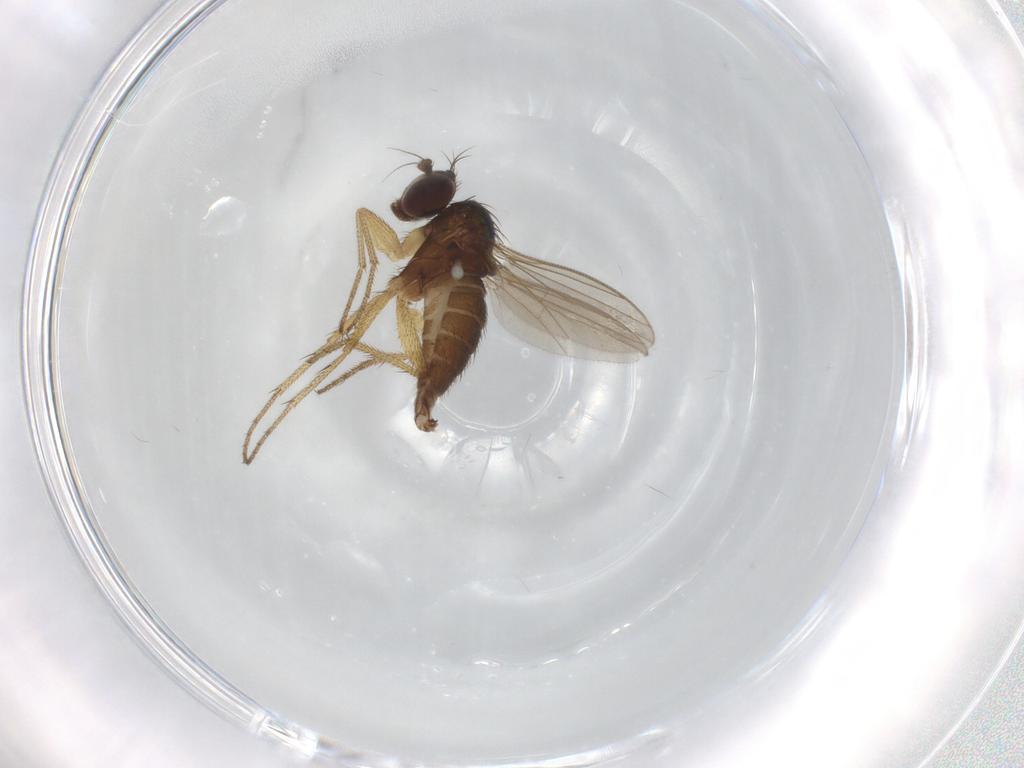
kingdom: Animalia
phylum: Arthropoda
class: Insecta
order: Diptera
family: Dolichopodidae
